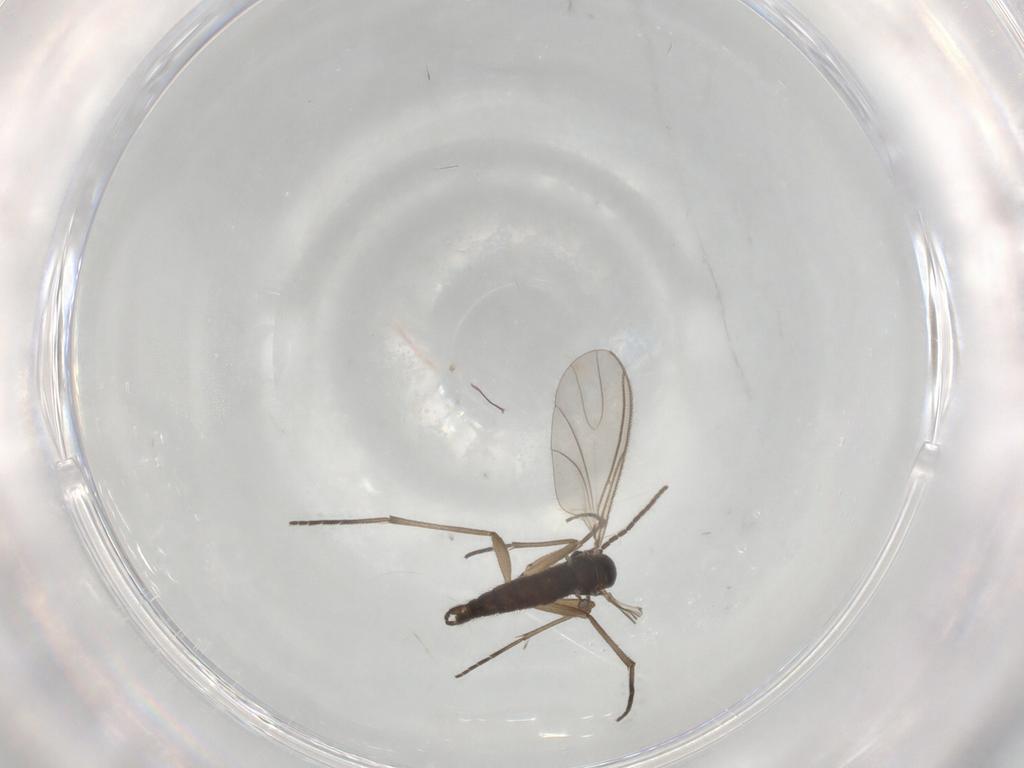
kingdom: Animalia
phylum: Arthropoda
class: Insecta
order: Diptera
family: Sciaridae
